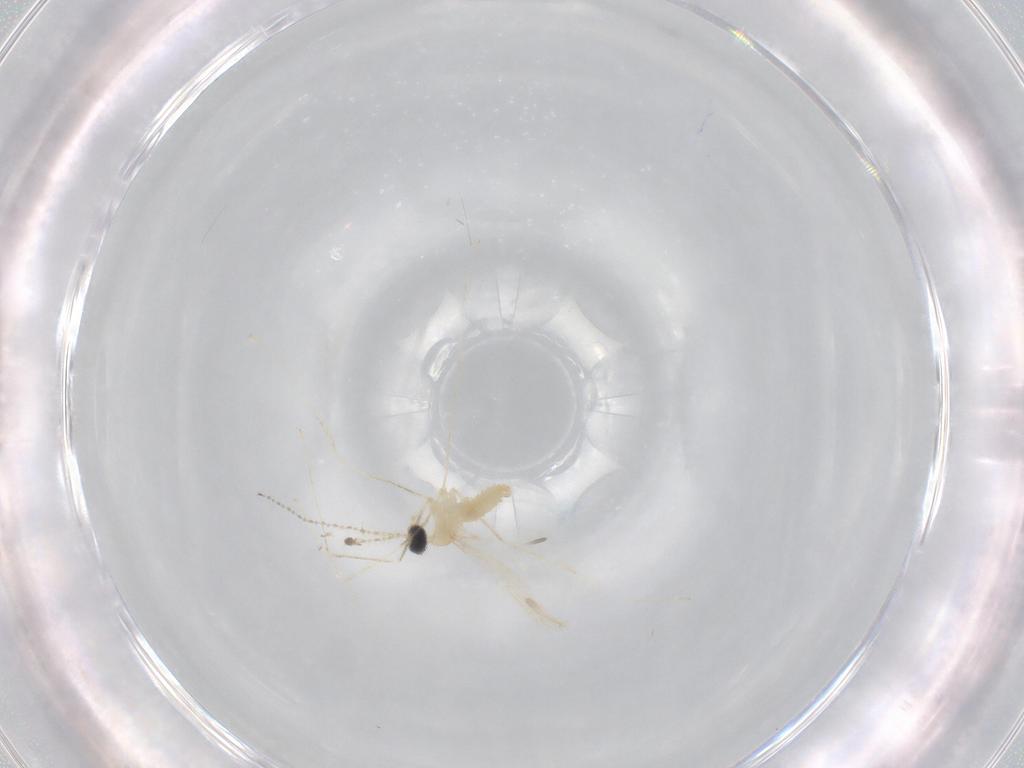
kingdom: Animalia
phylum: Arthropoda
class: Insecta
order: Diptera
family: Cecidomyiidae
